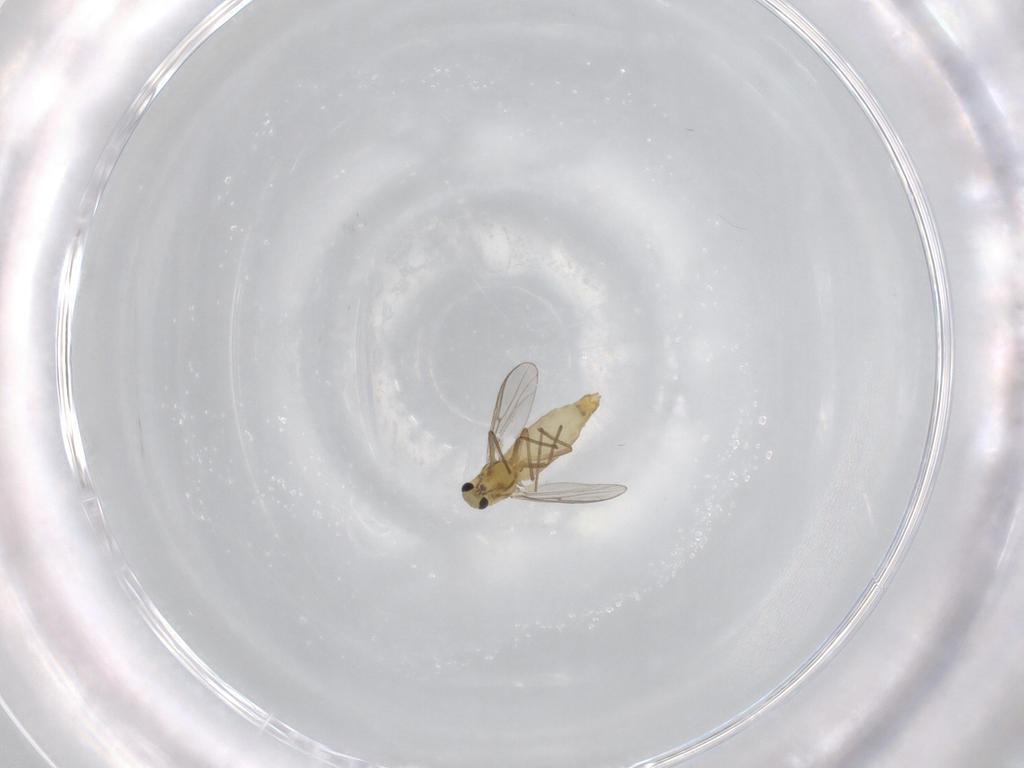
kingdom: Animalia
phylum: Arthropoda
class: Insecta
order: Diptera
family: Chironomidae
